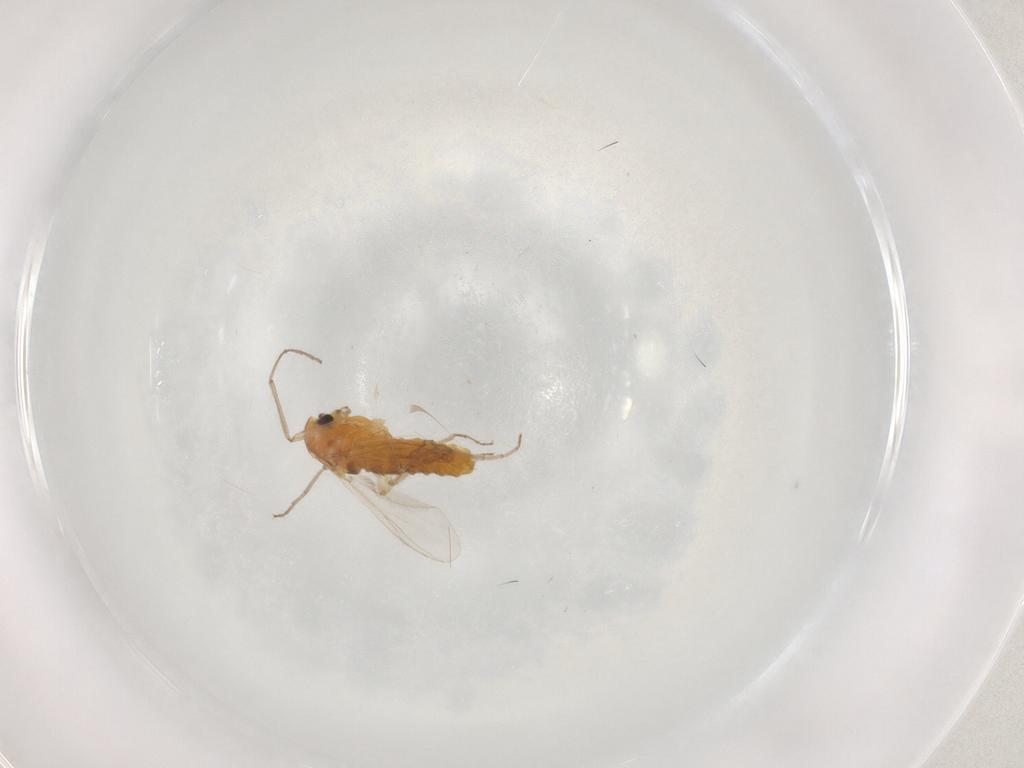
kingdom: Animalia
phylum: Arthropoda
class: Insecta
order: Diptera
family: Chironomidae
